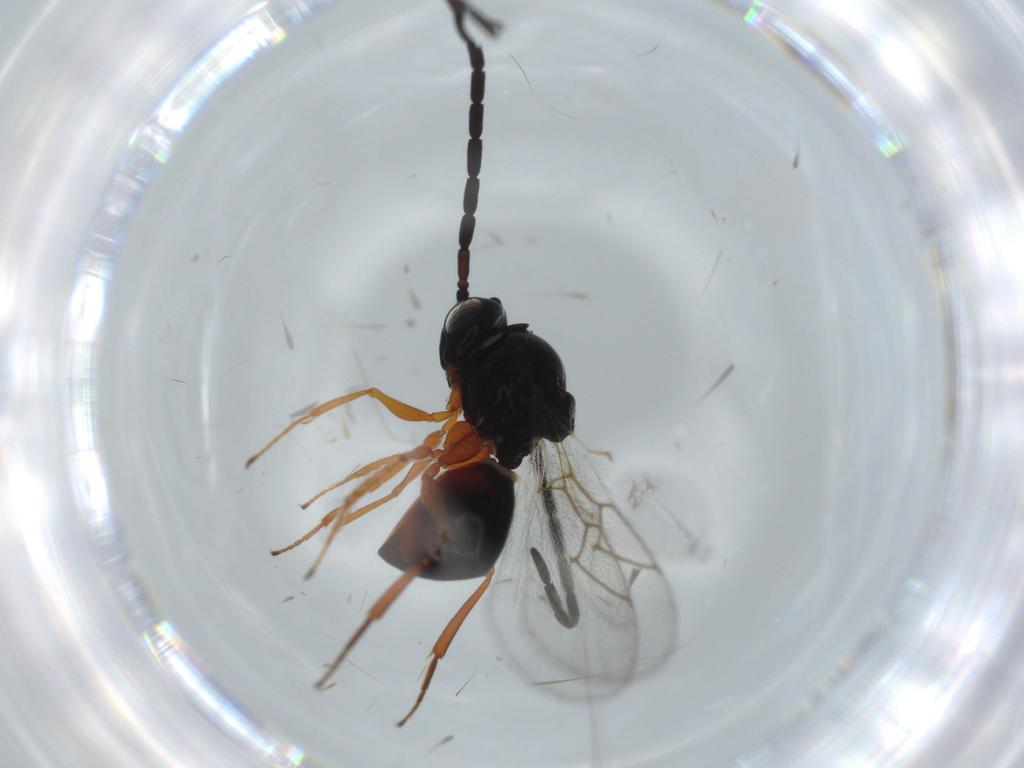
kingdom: Animalia
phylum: Arthropoda
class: Insecta
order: Hymenoptera
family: Figitidae
